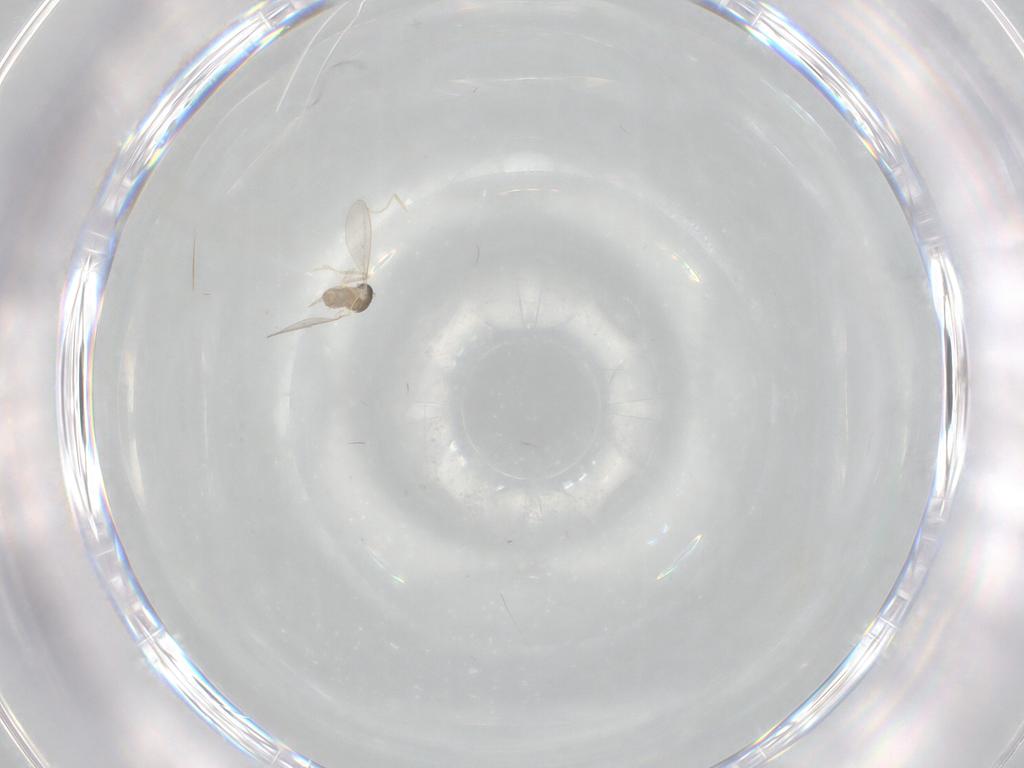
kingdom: Animalia
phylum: Arthropoda
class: Insecta
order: Diptera
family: Cecidomyiidae
